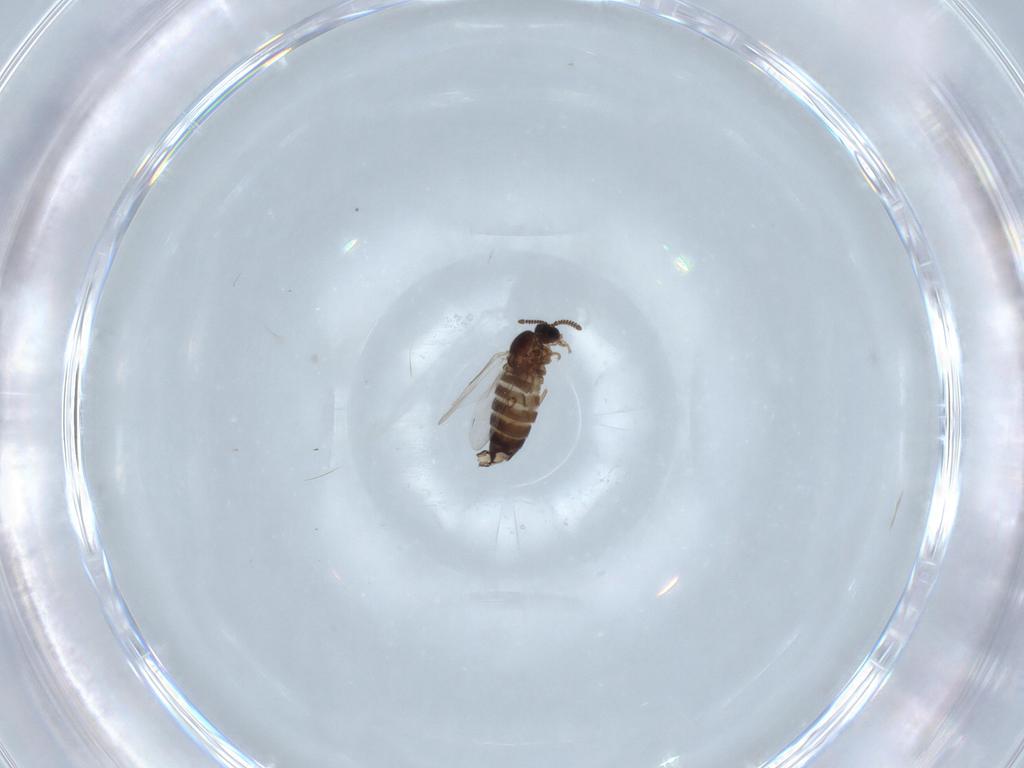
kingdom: Animalia
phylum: Arthropoda
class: Insecta
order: Diptera
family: Scatopsidae
